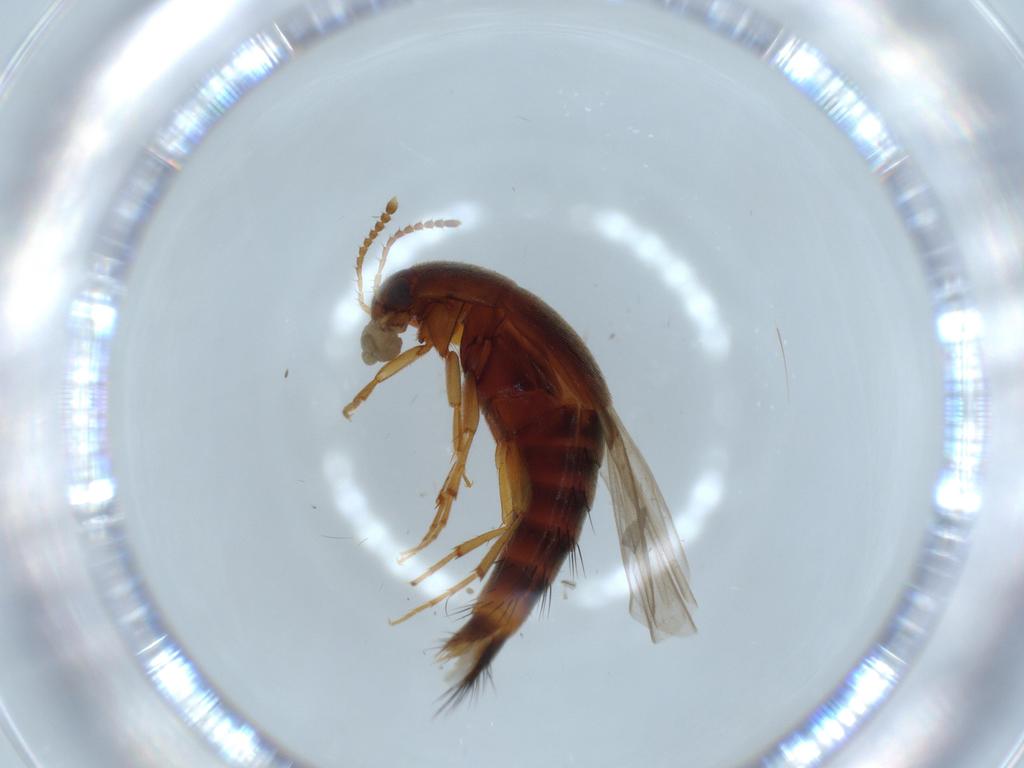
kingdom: Animalia
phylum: Arthropoda
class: Insecta
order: Coleoptera
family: Staphylinidae
